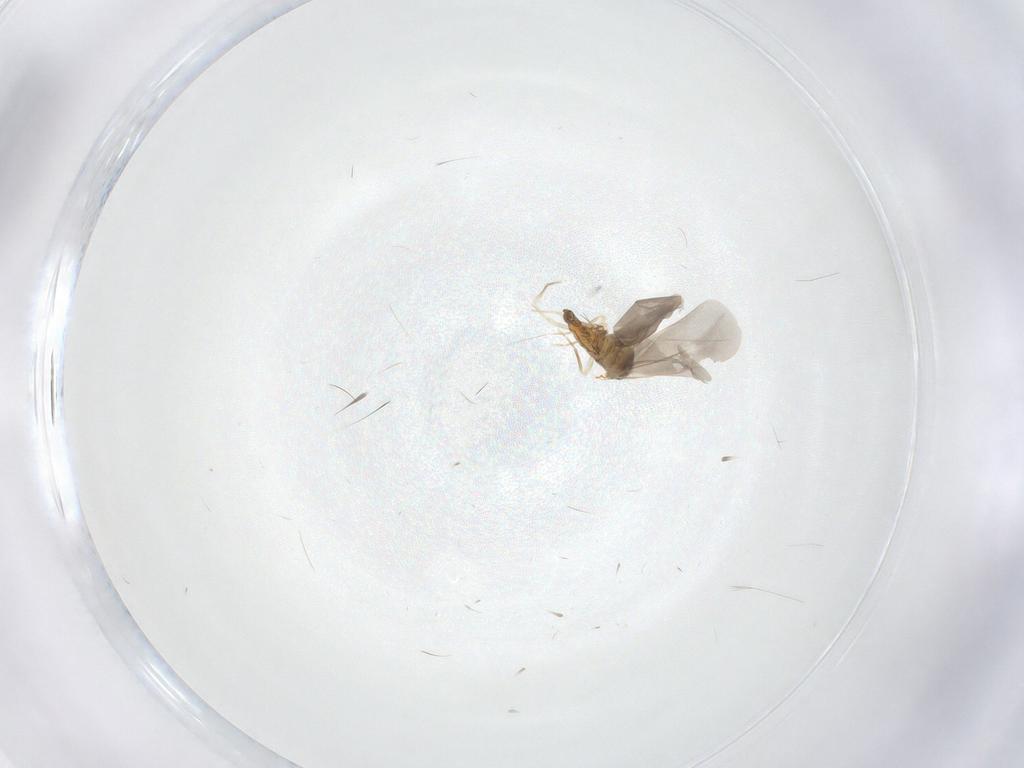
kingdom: Animalia
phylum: Arthropoda
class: Insecta
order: Hemiptera
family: Aleyrodidae
